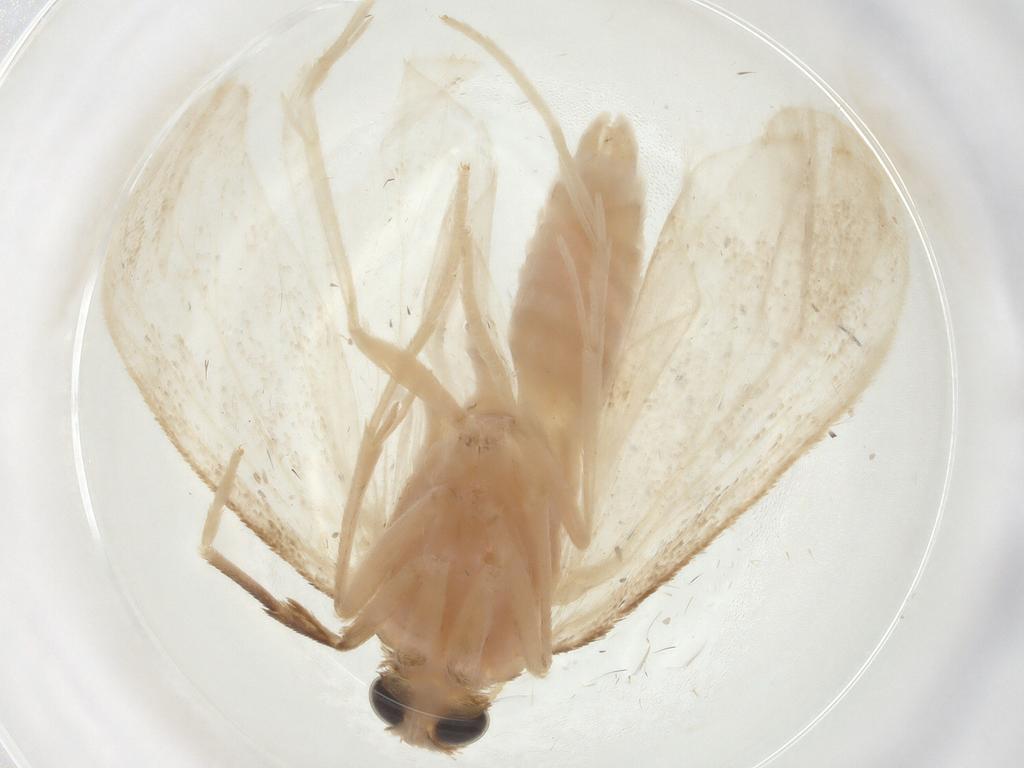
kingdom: Animalia
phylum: Arthropoda
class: Insecta
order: Lepidoptera
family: Crambidae
